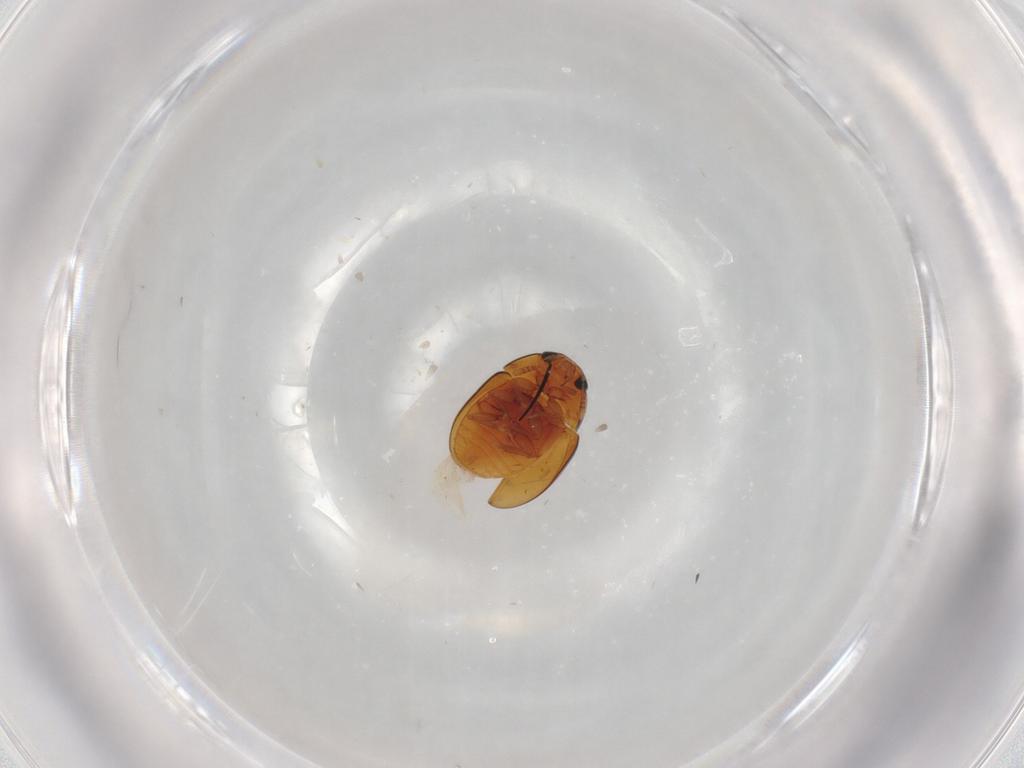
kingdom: Animalia
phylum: Arthropoda
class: Insecta
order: Coleoptera
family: Phalacridae
